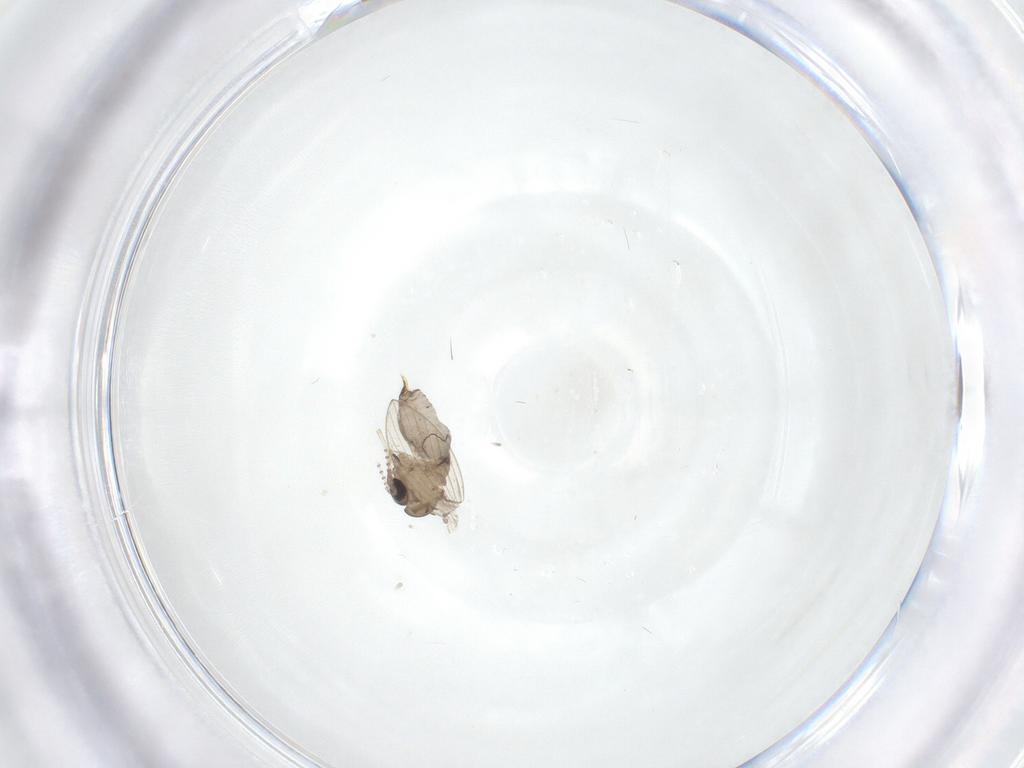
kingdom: Animalia
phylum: Arthropoda
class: Insecta
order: Diptera
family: Psychodidae
